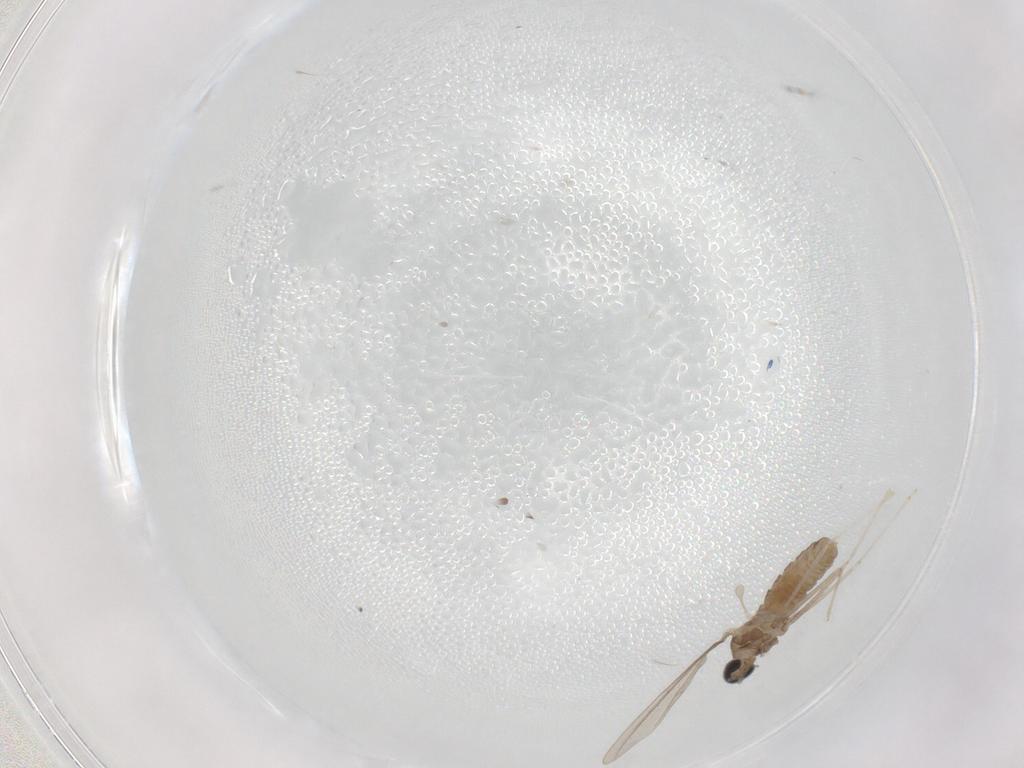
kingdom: Animalia
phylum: Arthropoda
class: Insecta
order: Diptera
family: Cecidomyiidae
